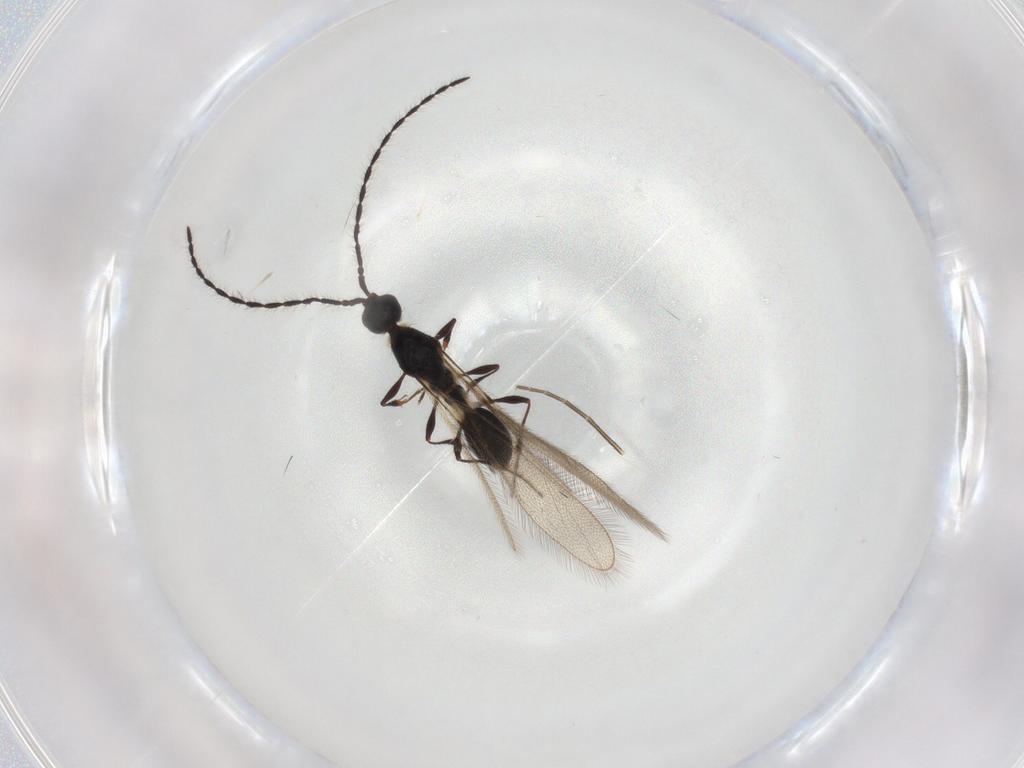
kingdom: Animalia
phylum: Arthropoda
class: Insecta
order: Hymenoptera
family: Diapriidae
